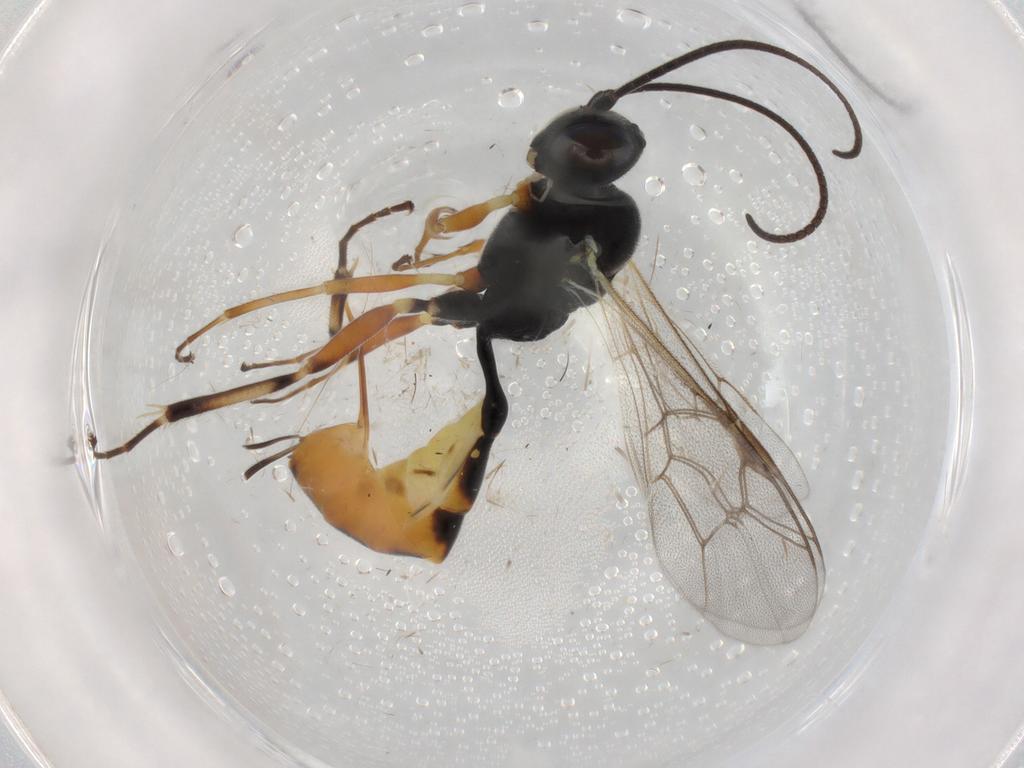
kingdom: Animalia
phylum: Arthropoda
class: Insecta
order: Hymenoptera
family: Ichneumonidae
